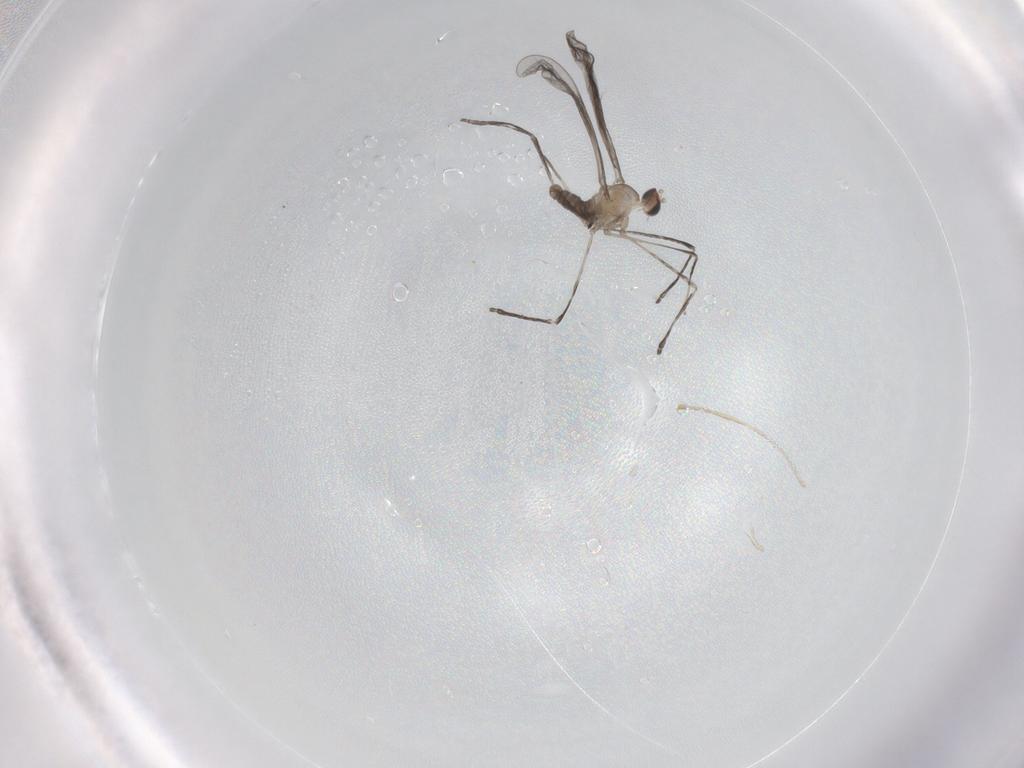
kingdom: Animalia
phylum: Arthropoda
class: Insecta
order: Diptera
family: Cecidomyiidae
